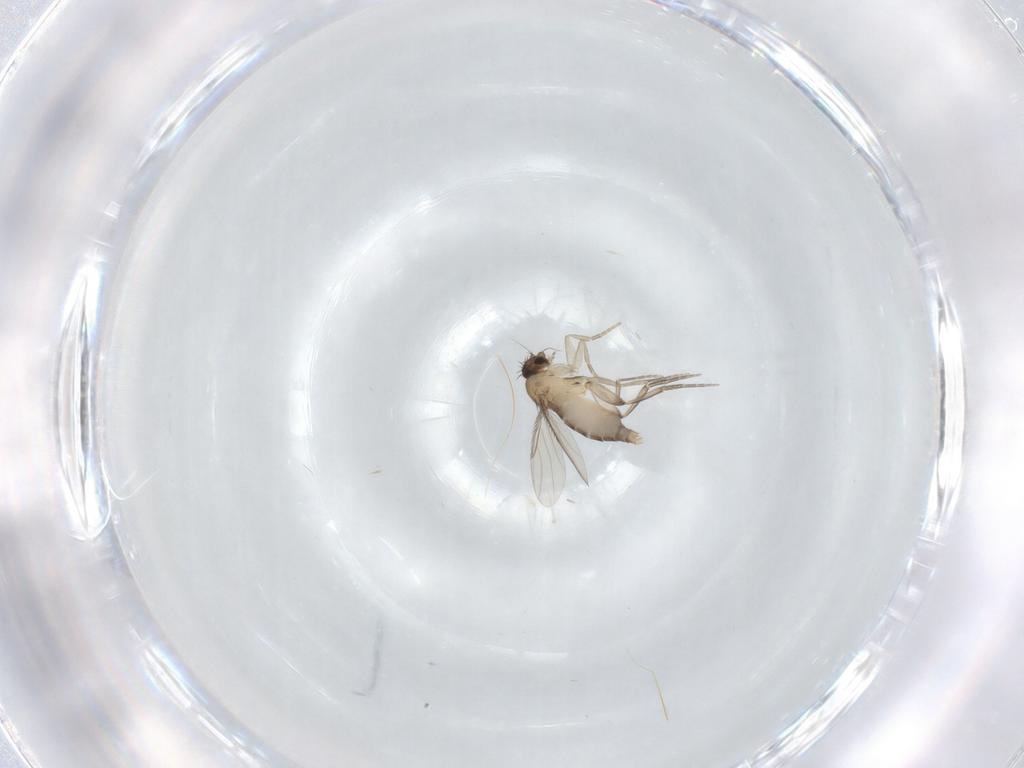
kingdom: Animalia
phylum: Arthropoda
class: Insecta
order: Diptera
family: Phoridae
